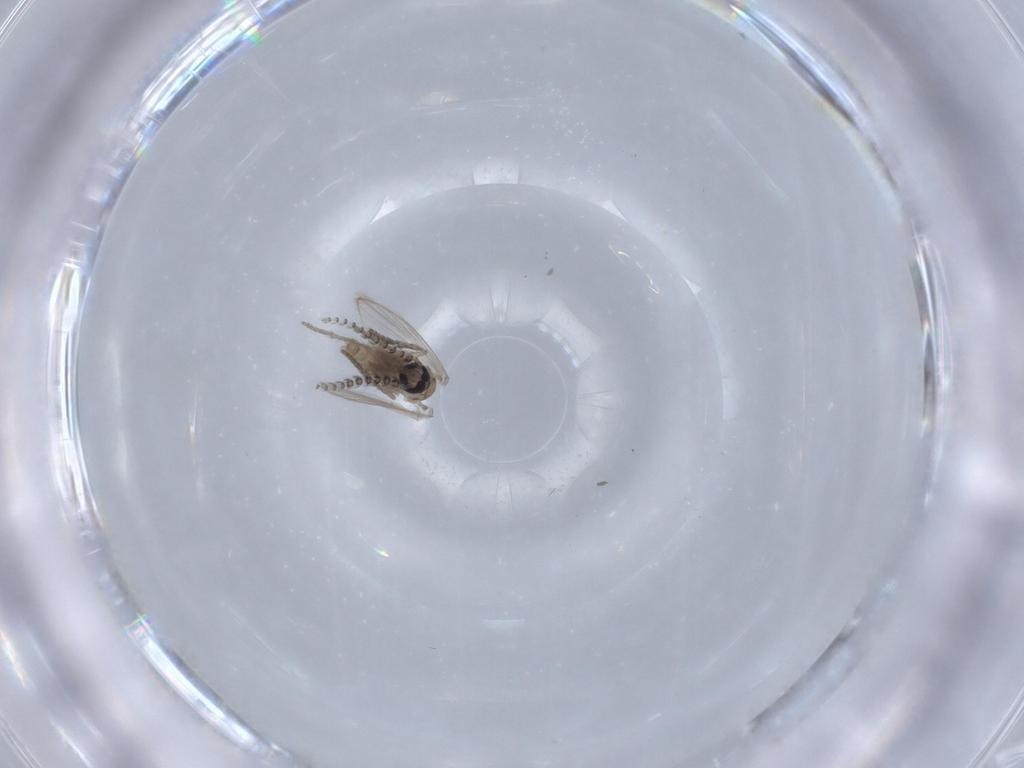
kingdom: Animalia
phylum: Arthropoda
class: Insecta
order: Diptera
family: Psychodidae
